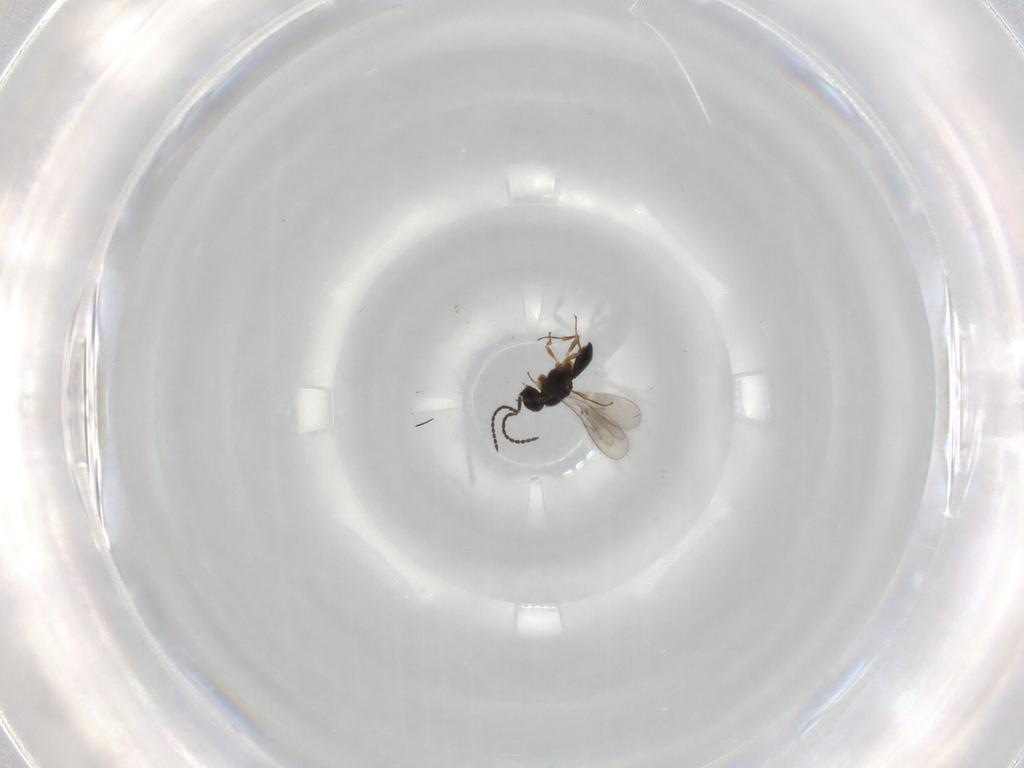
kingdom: Animalia
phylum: Arthropoda
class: Insecta
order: Hymenoptera
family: Scelionidae
